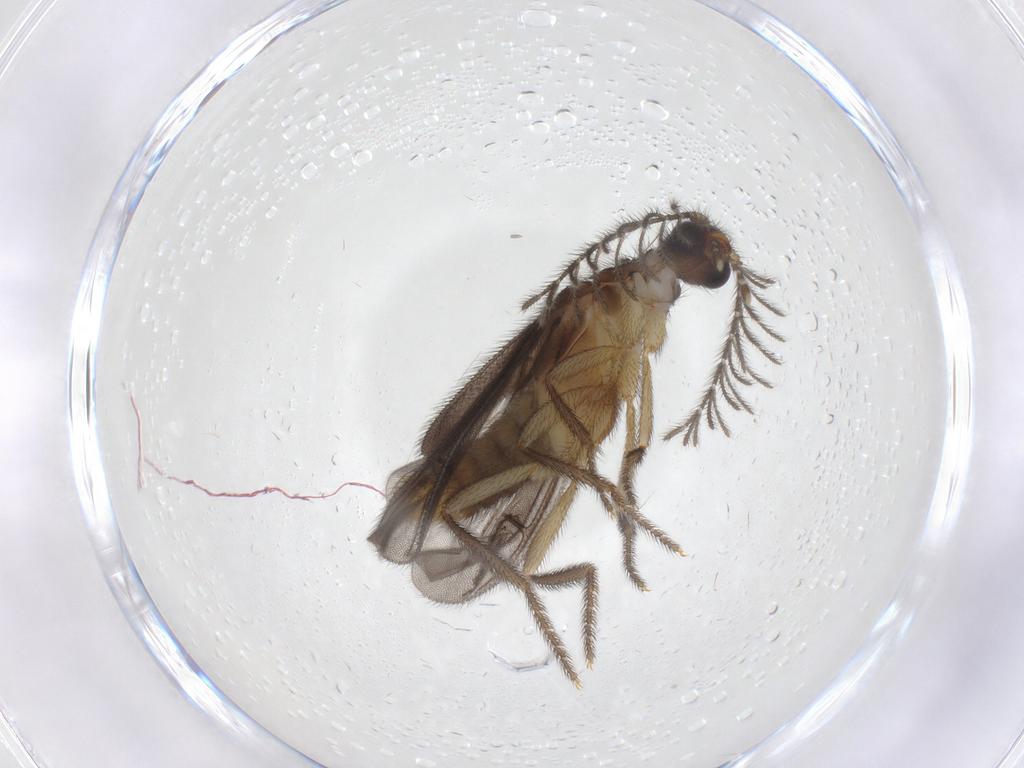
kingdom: Animalia
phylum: Arthropoda
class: Insecta
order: Coleoptera
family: Phengodidae
